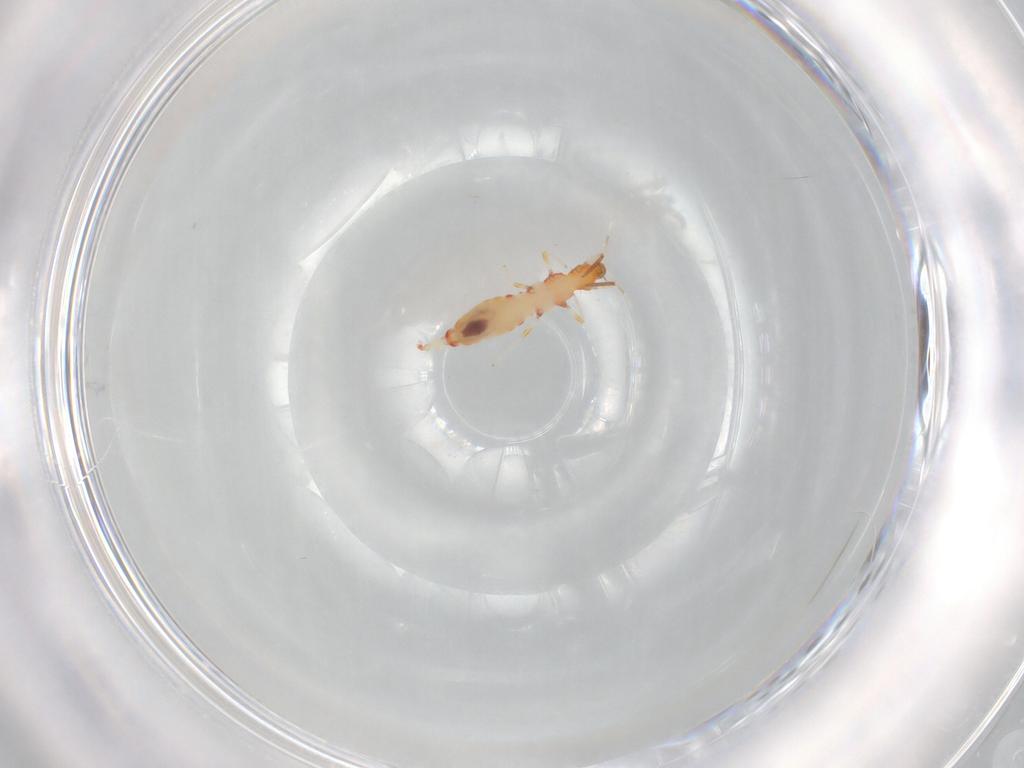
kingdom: Animalia
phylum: Arthropoda
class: Insecta
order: Thysanoptera
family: Aeolothripidae
